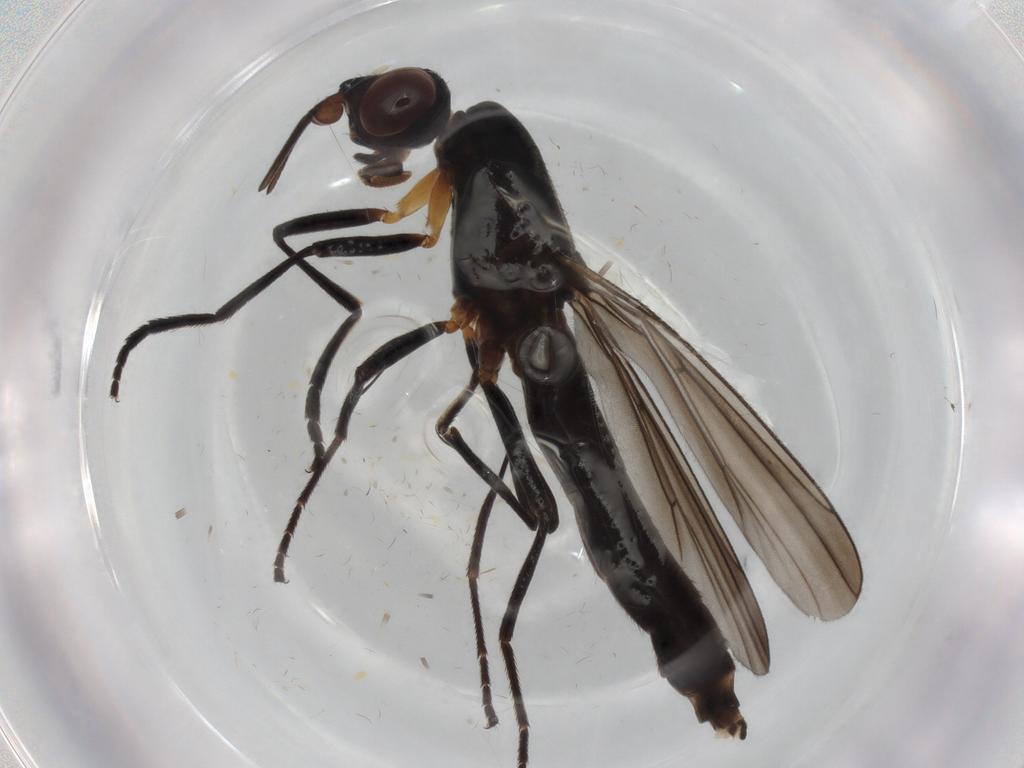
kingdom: Animalia
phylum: Arthropoda
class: Insecta
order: Diptera
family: Chloropidae
